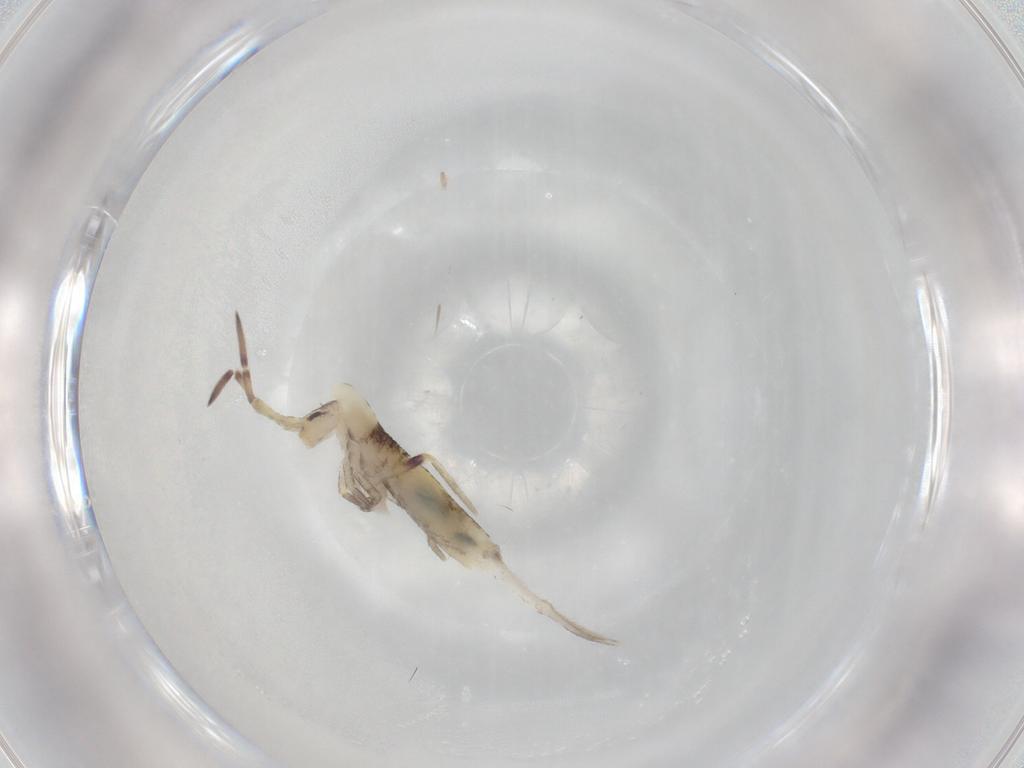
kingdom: Animalia
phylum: Arthropoda
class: Collembola
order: Entomobryomorpha
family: Entomobryidae
